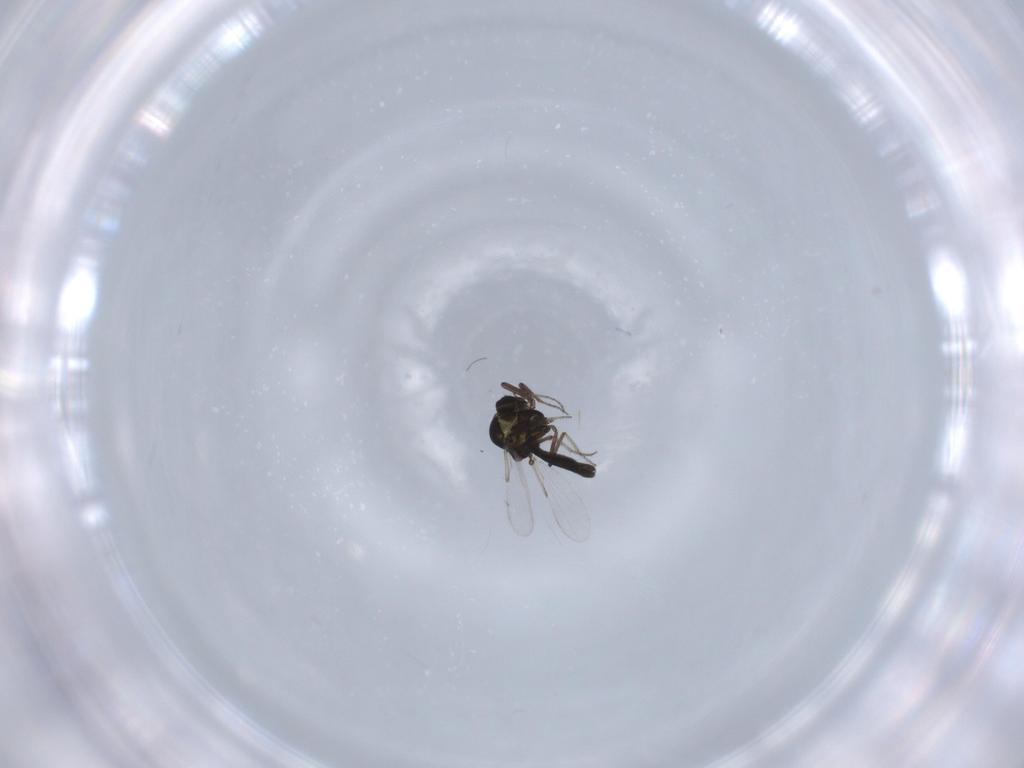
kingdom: Animalia
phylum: Arthropoda
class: Insecta
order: Diptera
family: Ceratopogonidae
